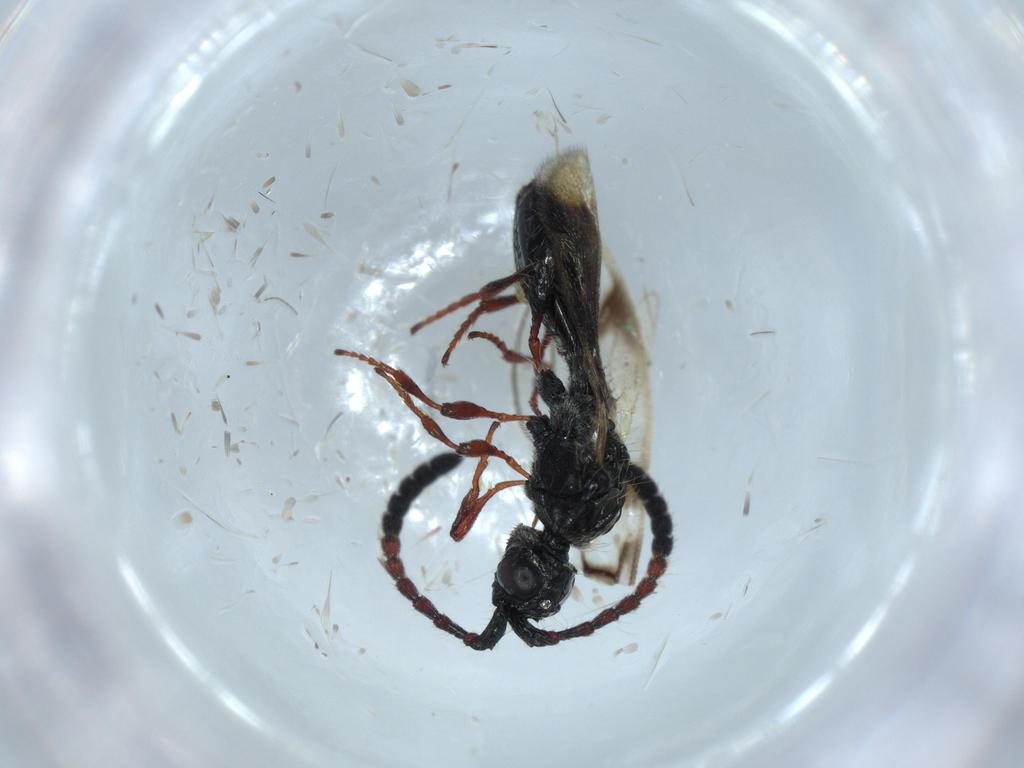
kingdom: Animalia
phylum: Arthropoda
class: Insecta
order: Hymenoptera
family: Diapriidae
